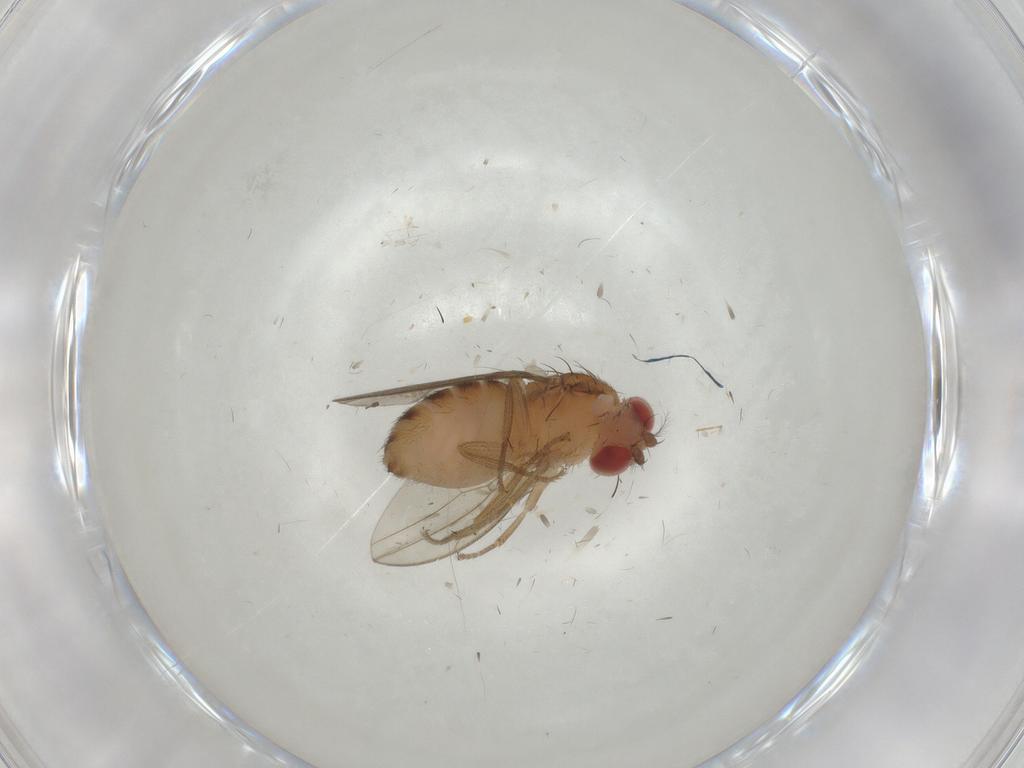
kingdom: Animalia
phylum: Arthropoda
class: Insecta
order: Diptera
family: Drosophilidae
